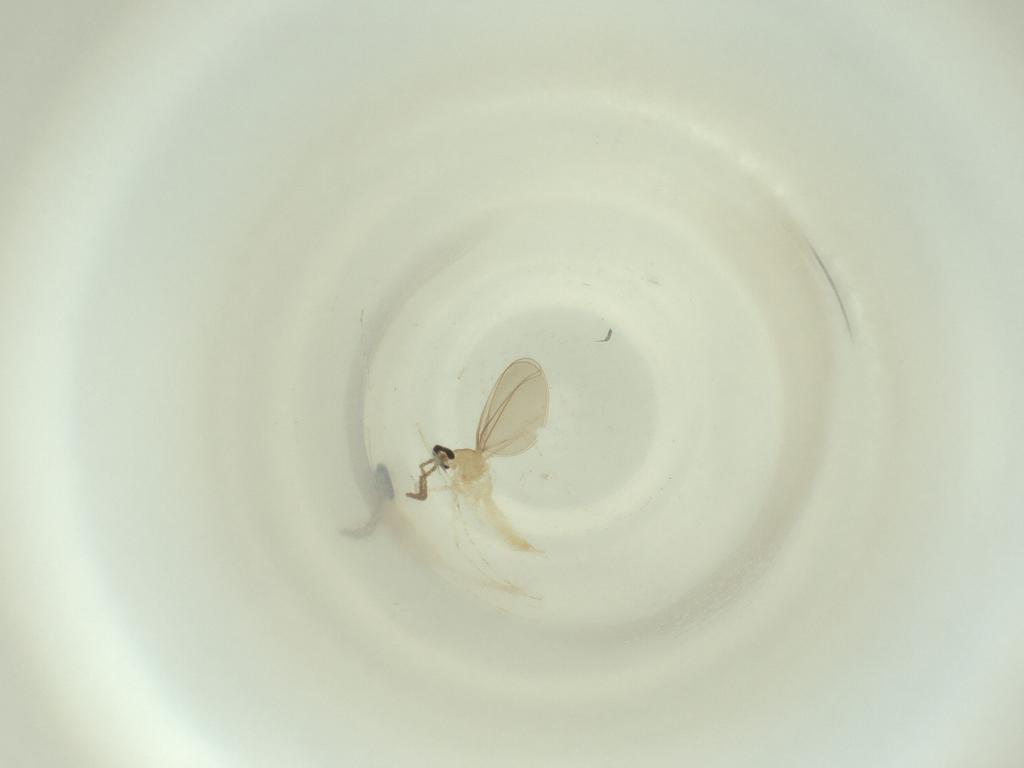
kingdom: Animalia
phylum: Arthropoda
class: Insecta
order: Diptera
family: Cecidomyiidae
